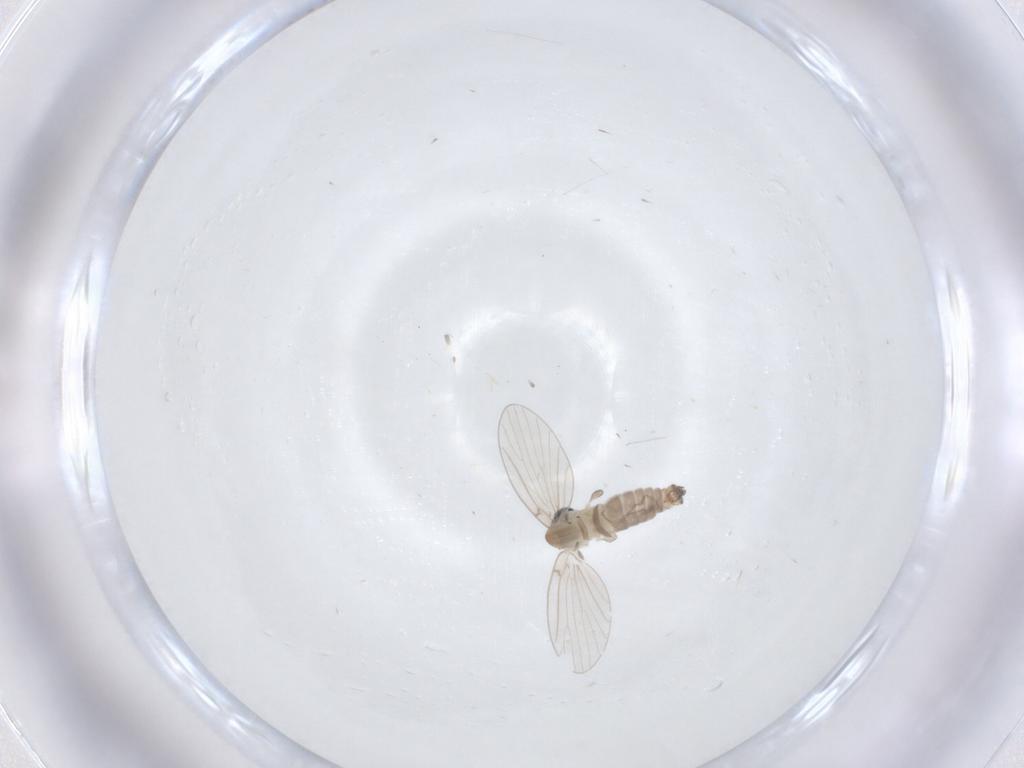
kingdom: Animalia
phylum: Arthropoda
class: Insecta
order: Diptera
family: Psychodidae
